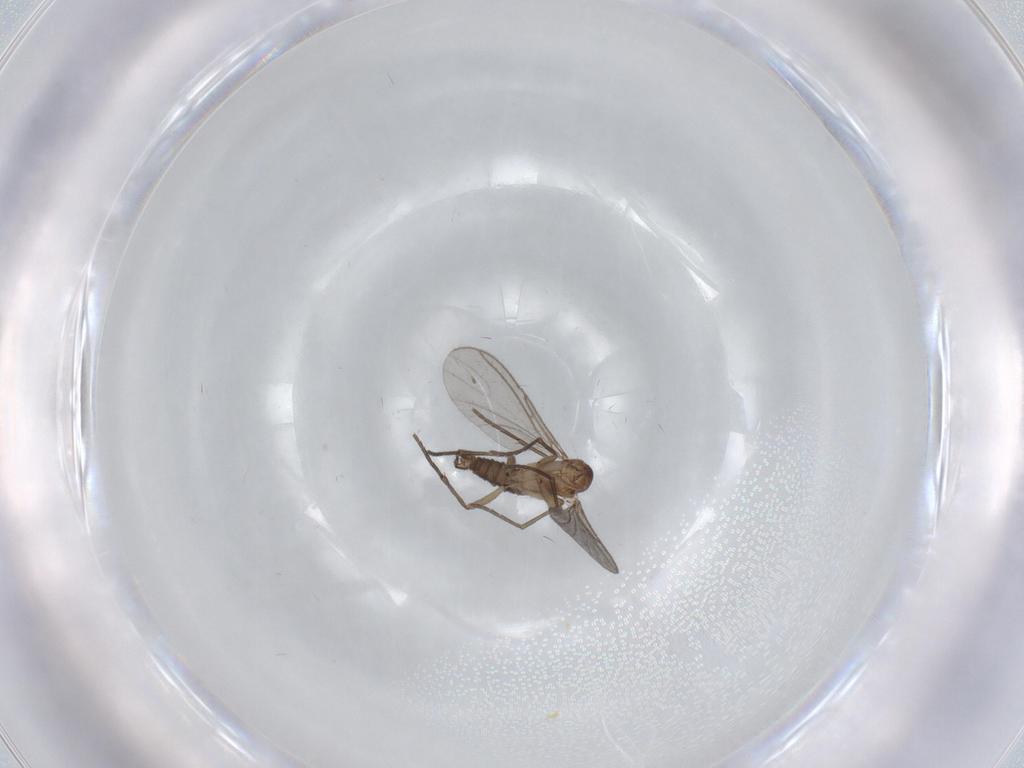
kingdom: Animalia
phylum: Arthropoda
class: Insecta
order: Diptera
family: Sciaridae
